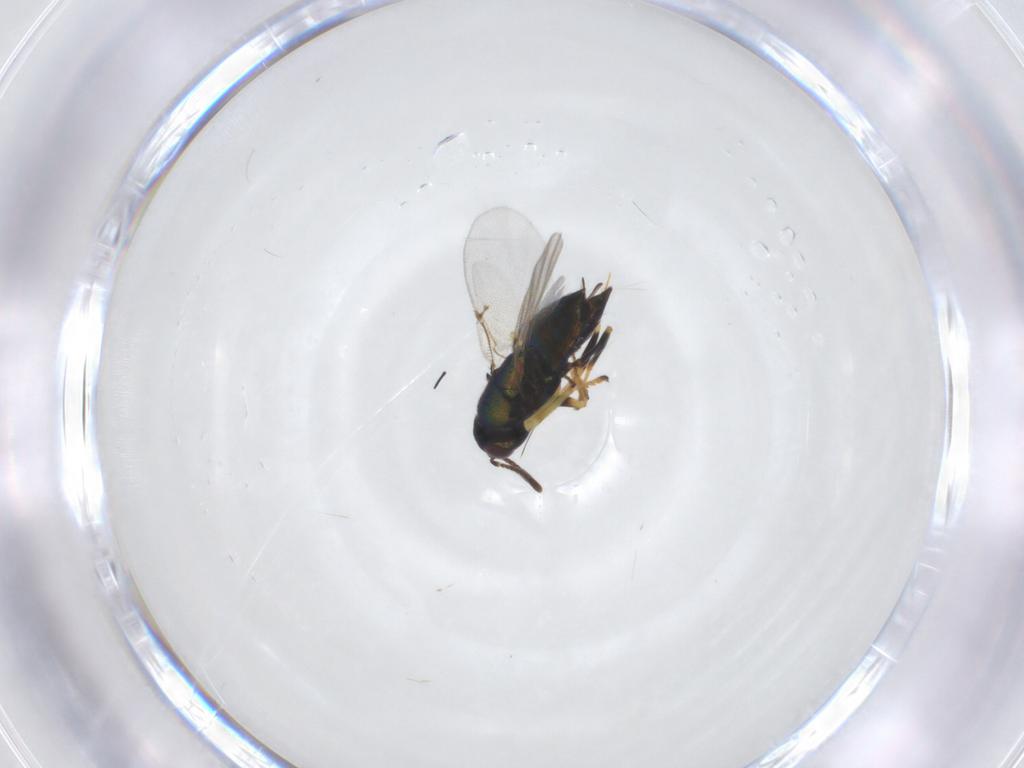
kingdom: Animalia
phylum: Arthropoda
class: Insecta
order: Hymenoptera
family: Encyrtidae
